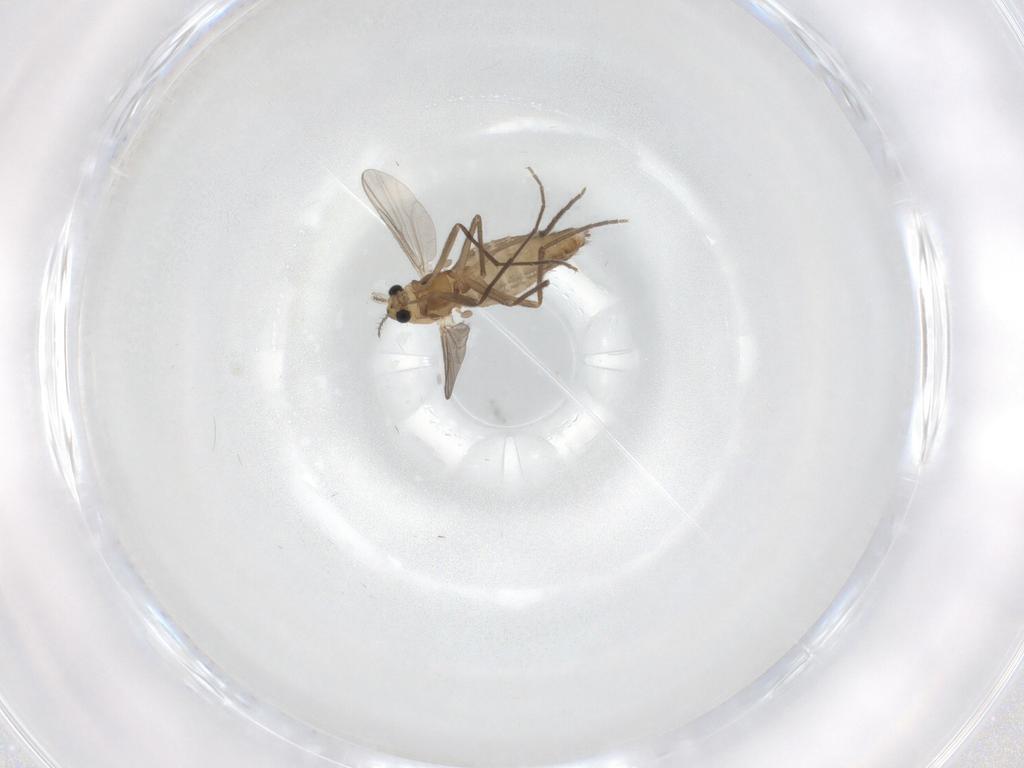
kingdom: Animalia
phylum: Arthropoda
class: Insecta
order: Diptera
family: Chironomidae
